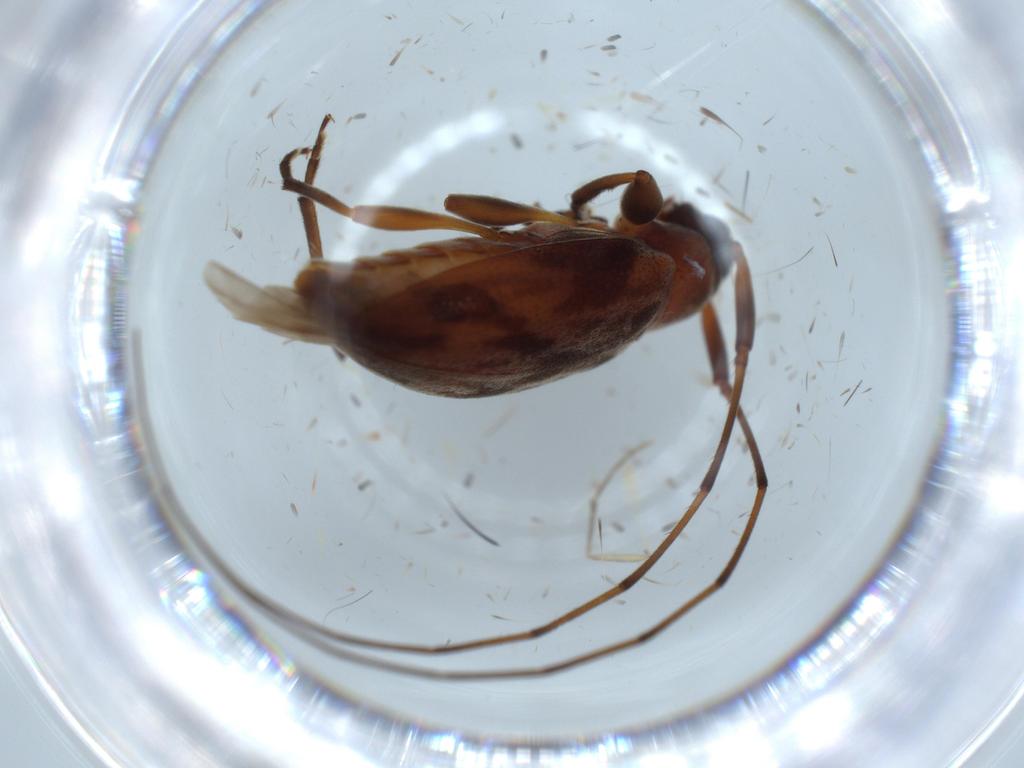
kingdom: Animalia
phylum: Arthropoda
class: Insecta
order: Coleoptera
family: Cerambycidae
